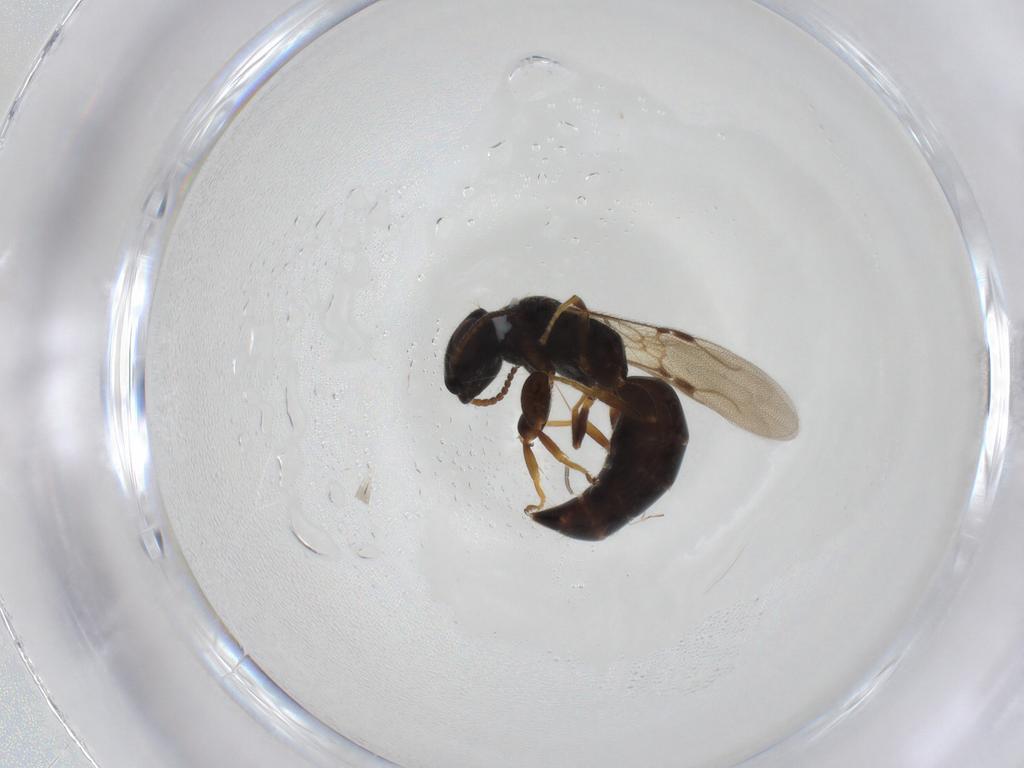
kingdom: Animalia
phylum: Arthropoda
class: Insecta
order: Hymenoptera
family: Bethylidae
